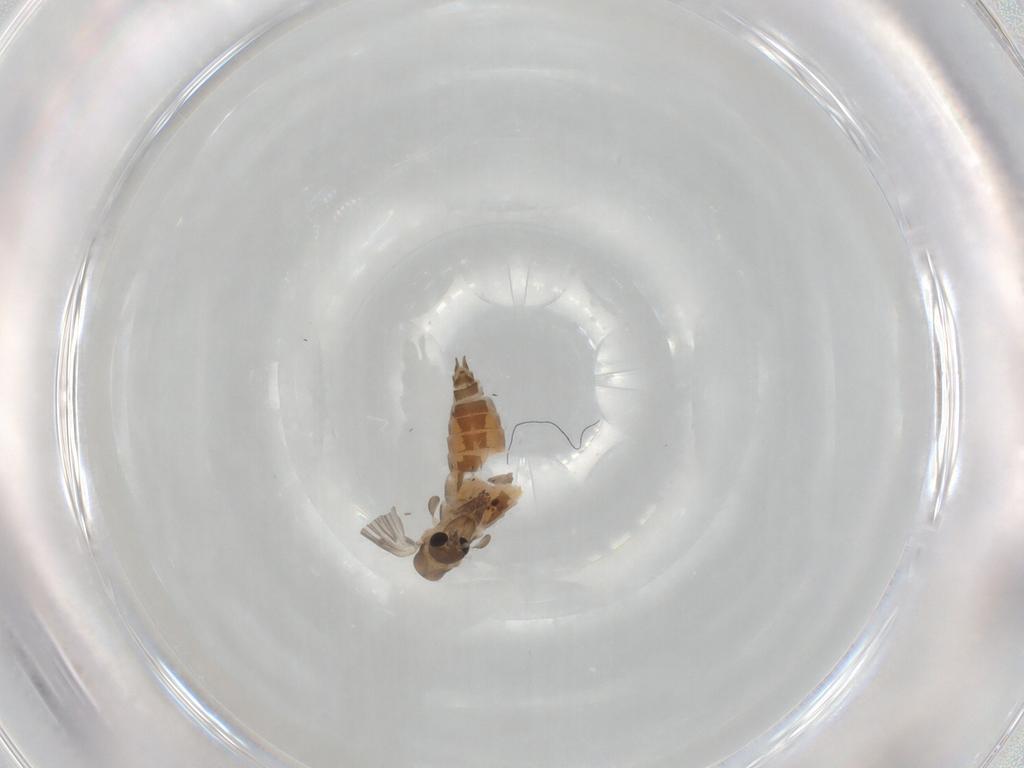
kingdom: Animalia
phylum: Arthropoda
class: Insecta
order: Diptera
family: Psychodidae
